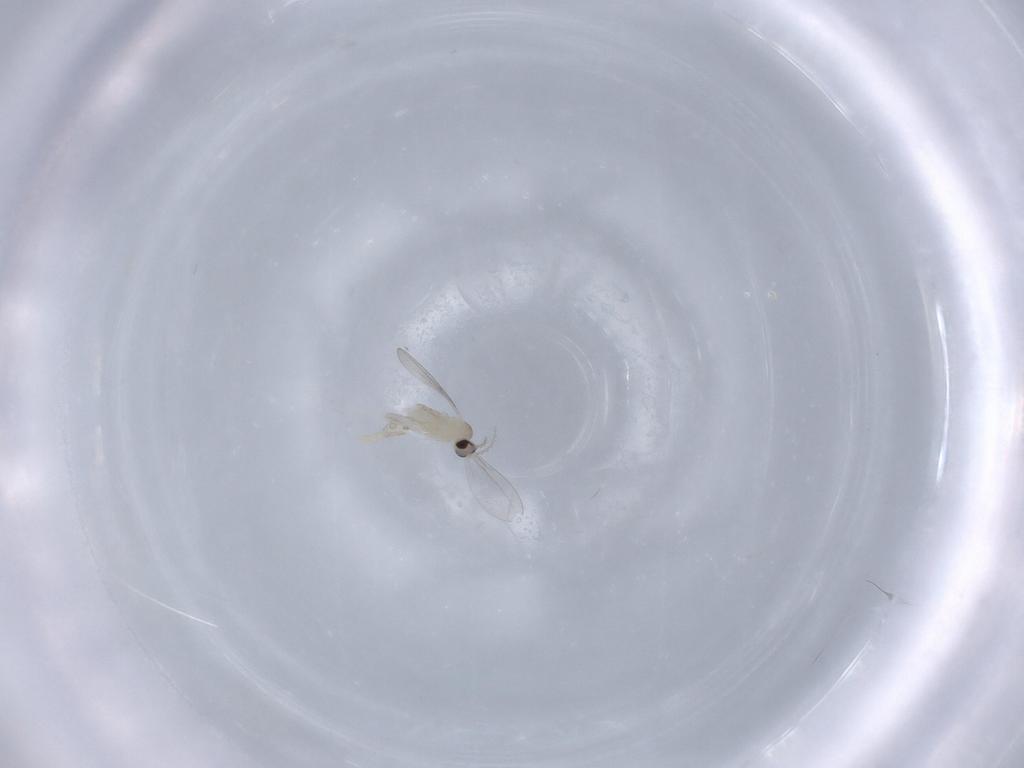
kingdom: Animalia
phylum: Arthropoda
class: Insecta
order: Diptera
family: Cecidomyiidae
